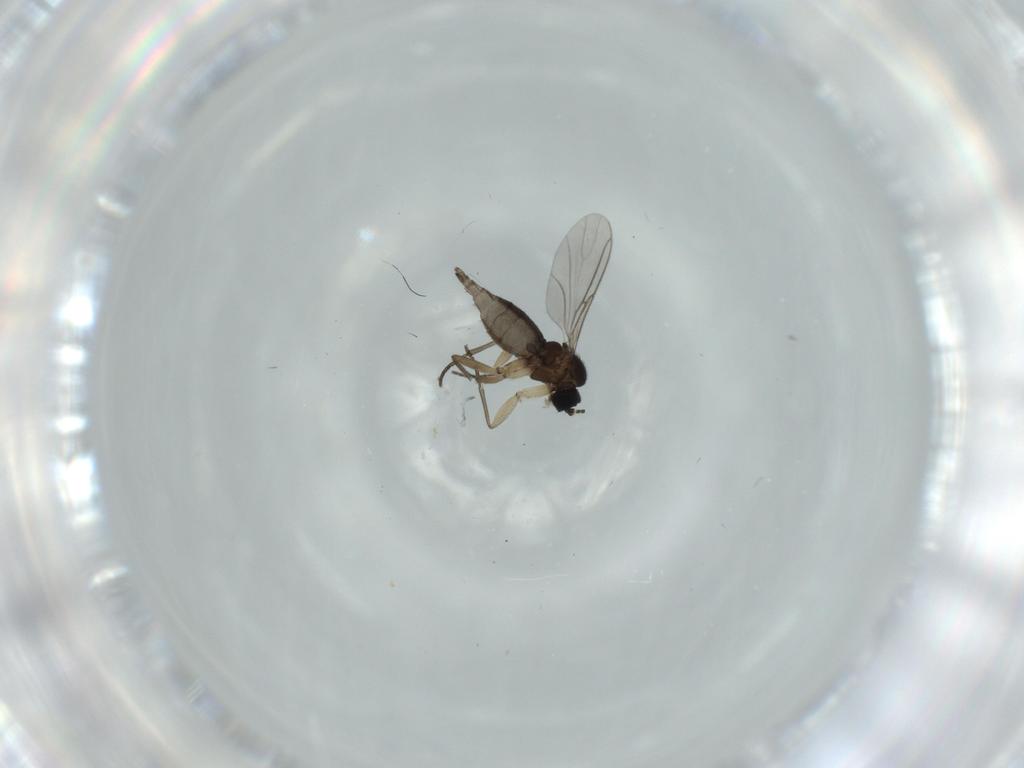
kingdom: Animalia
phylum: Arthropoda
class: Insecta
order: Diptera
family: Sciaridae
